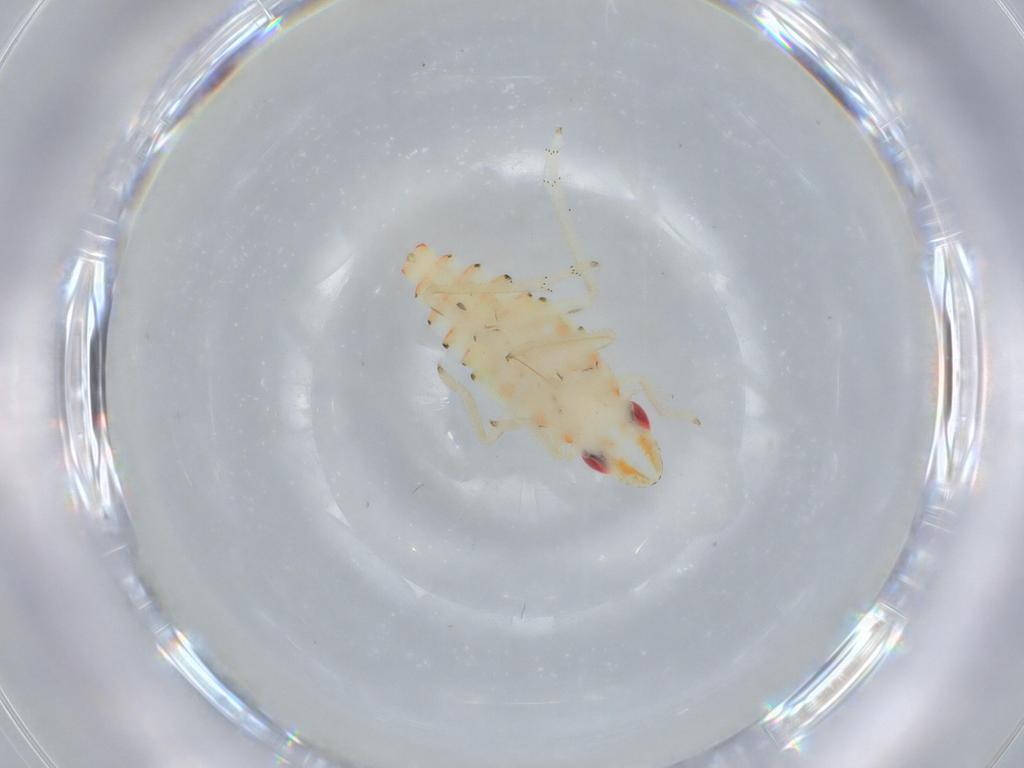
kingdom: Animalia
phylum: Arthropoda
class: Insecta
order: Hemiptera
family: Tropiduchidae
